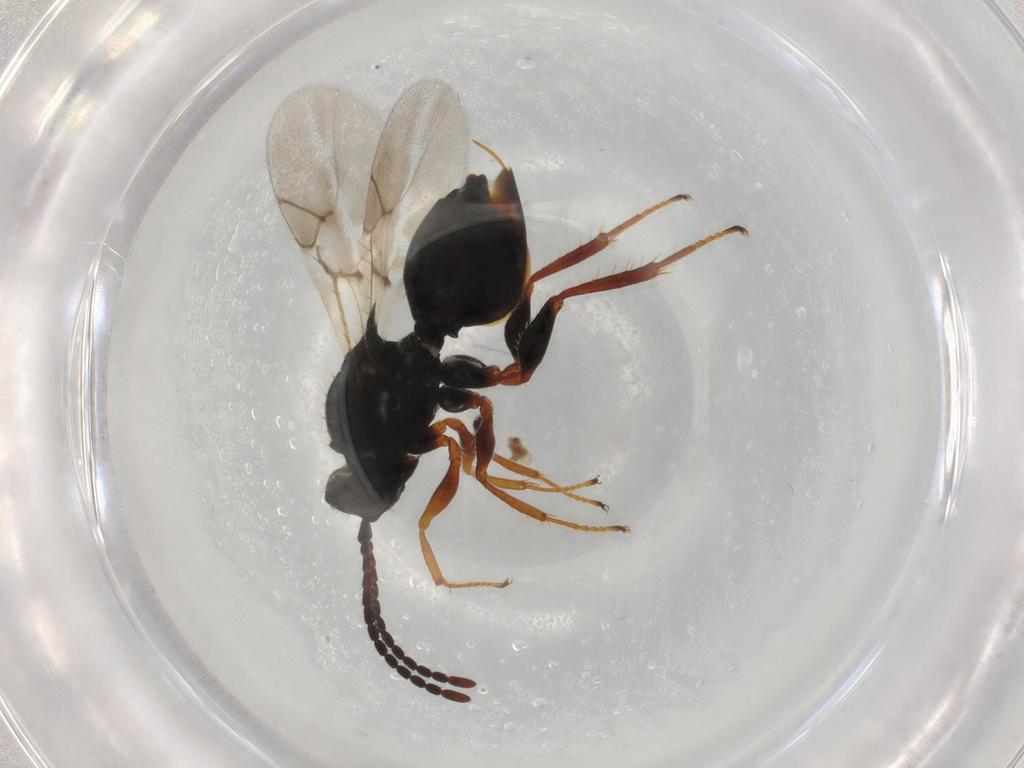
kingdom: Animalia
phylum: Arthropoda
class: Insecta
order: Hymenoptera
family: Figitidae
